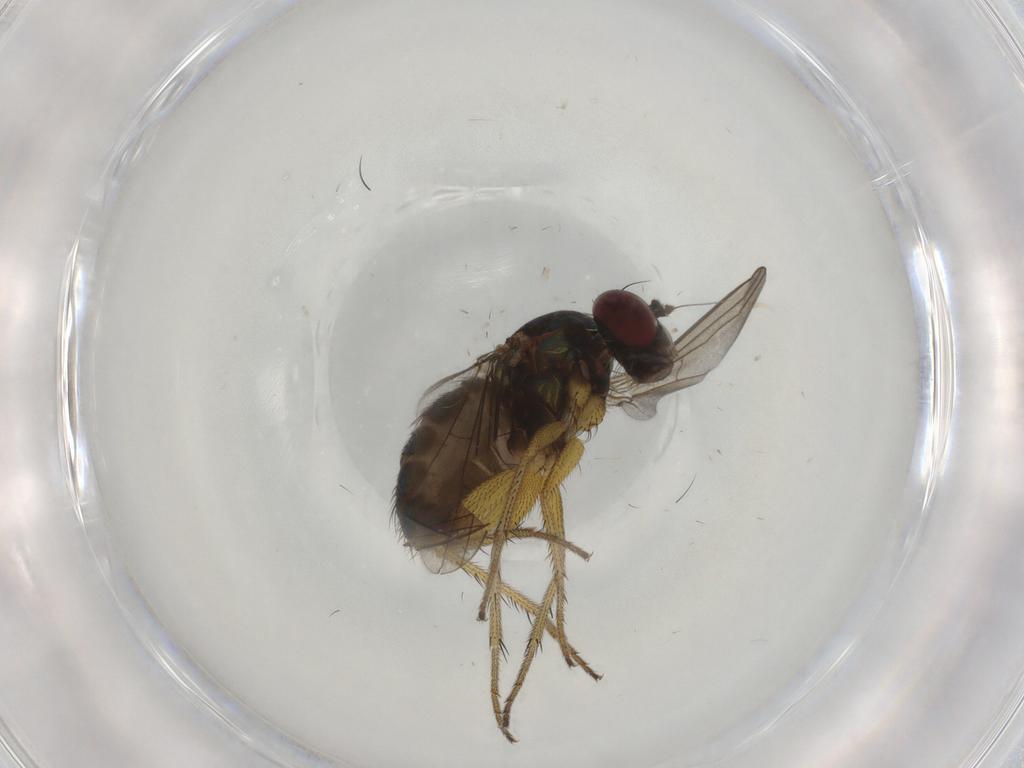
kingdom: Animalia
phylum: Arthropoda
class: Insecta
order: Diptera
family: Dolichopodidae
